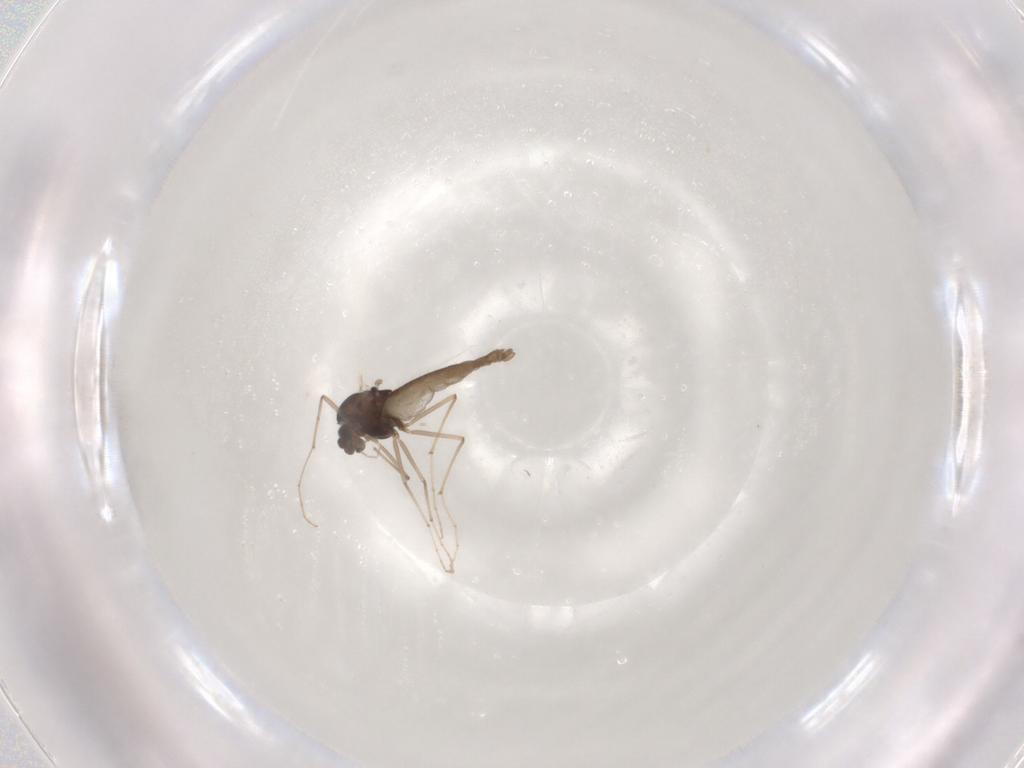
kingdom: Animalia
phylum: Arthropoda
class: Insecta
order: Diptera
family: Chironomidae
